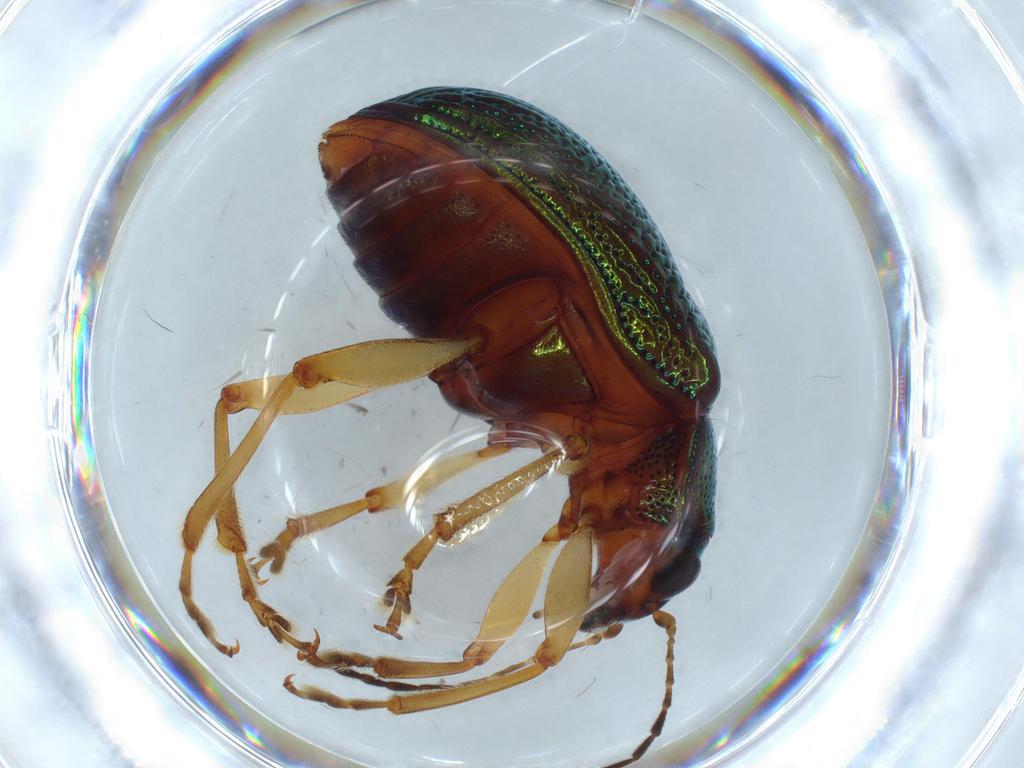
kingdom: Animalia
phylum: Arthropoda
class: Insecta
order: Coleoptera
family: Chrysomelidae
